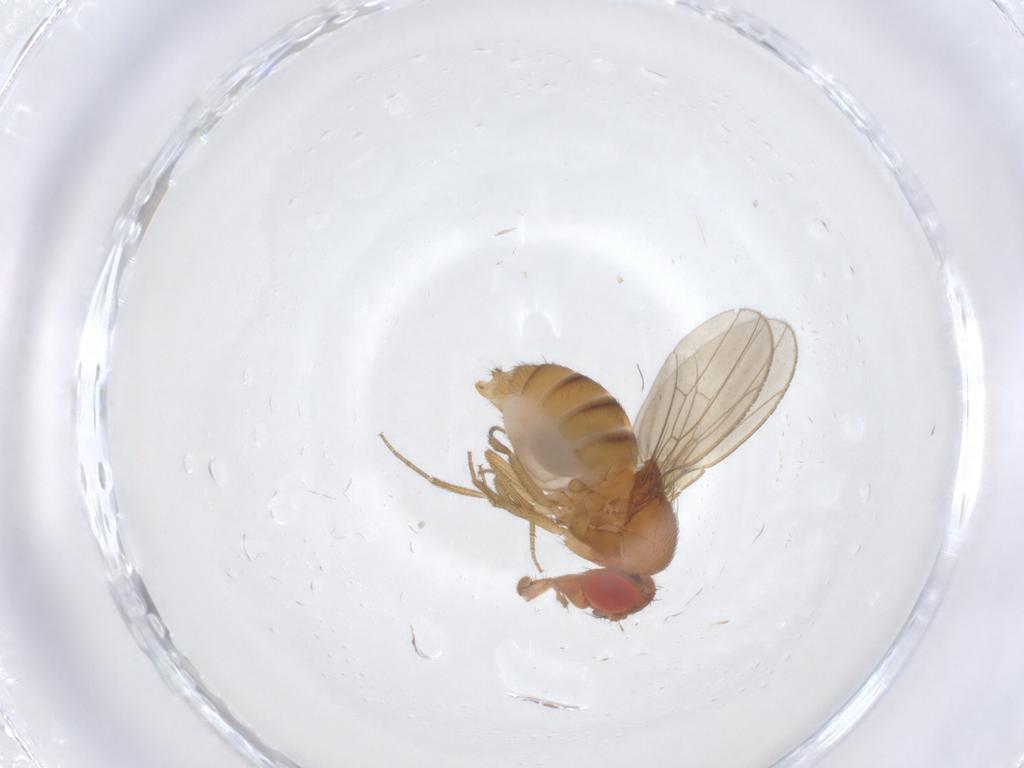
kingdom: Animalia
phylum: Arthropoda
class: Insecta
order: Diptera
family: Drosophilidae
